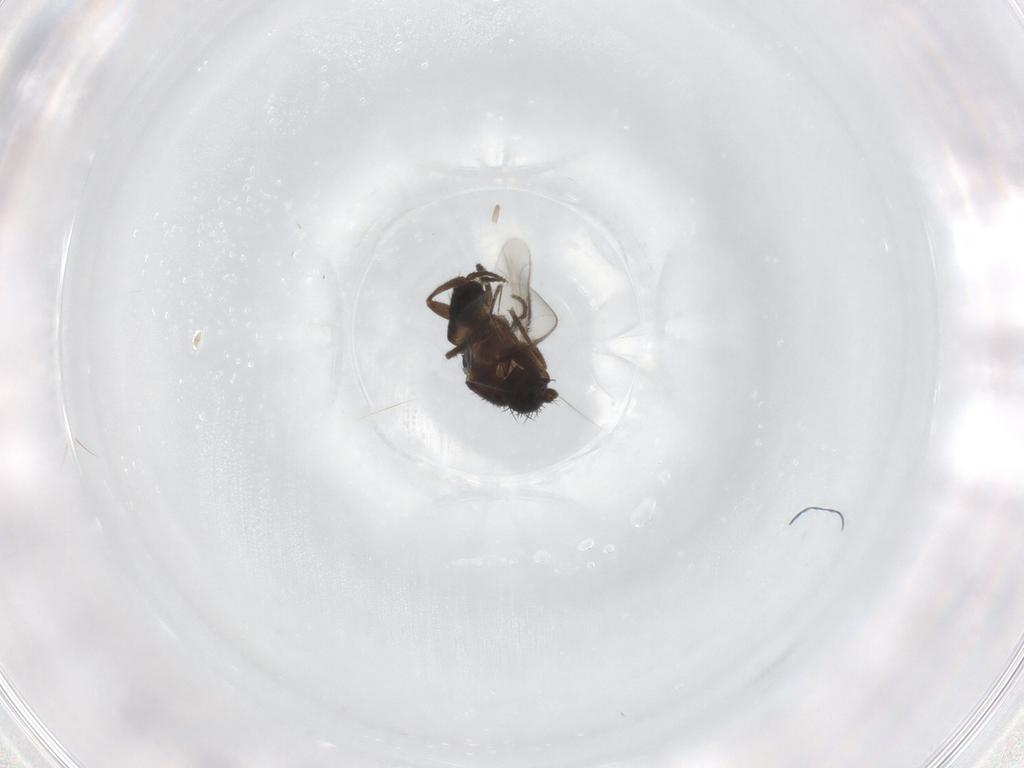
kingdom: Animalia
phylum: Arthropoda
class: Insecta
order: Diptera
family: Sphaeroceridae
